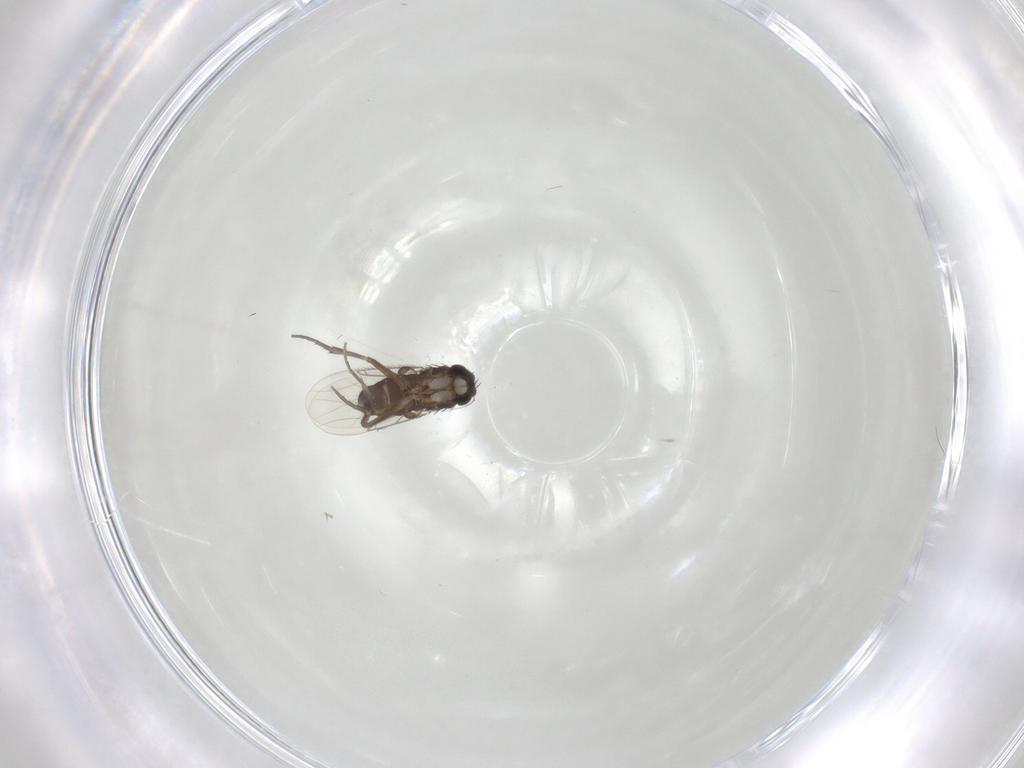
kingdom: Animalia
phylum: Arthropoda
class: Insecta
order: Diptera
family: Phoridae
